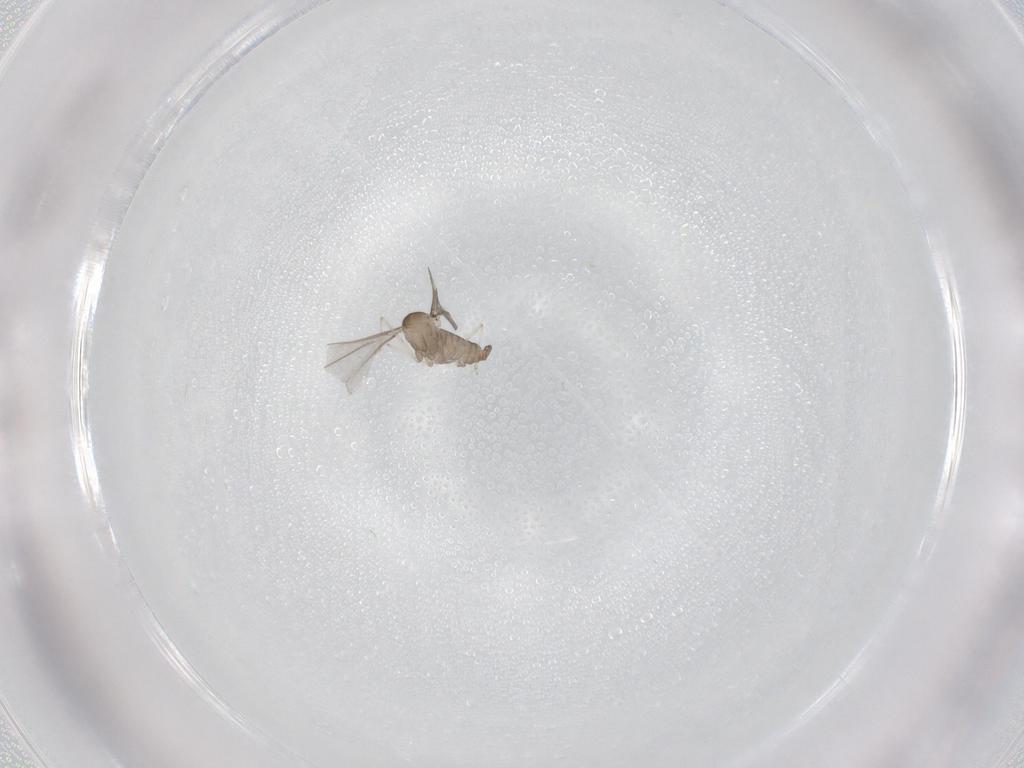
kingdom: Animalia
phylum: Arthropoda
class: Insecta
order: Diptera
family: Cecidomyiidae
